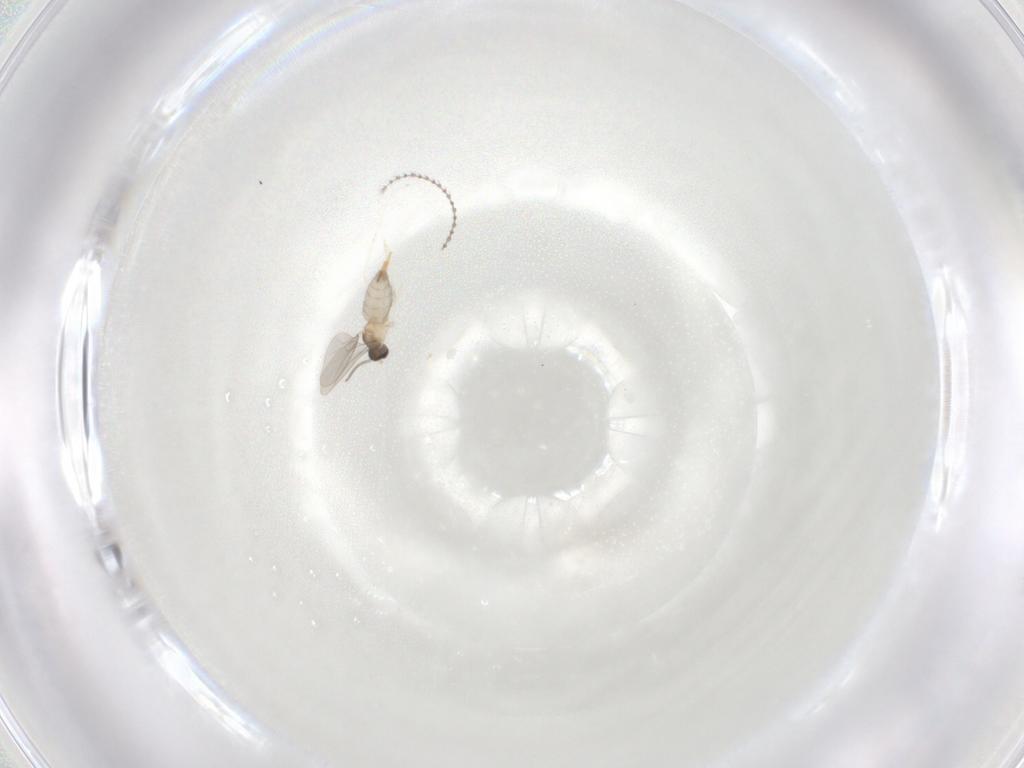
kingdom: Animalia
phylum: Arthropoda
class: Insecta
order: Diptera
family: Cecidomyiidae
